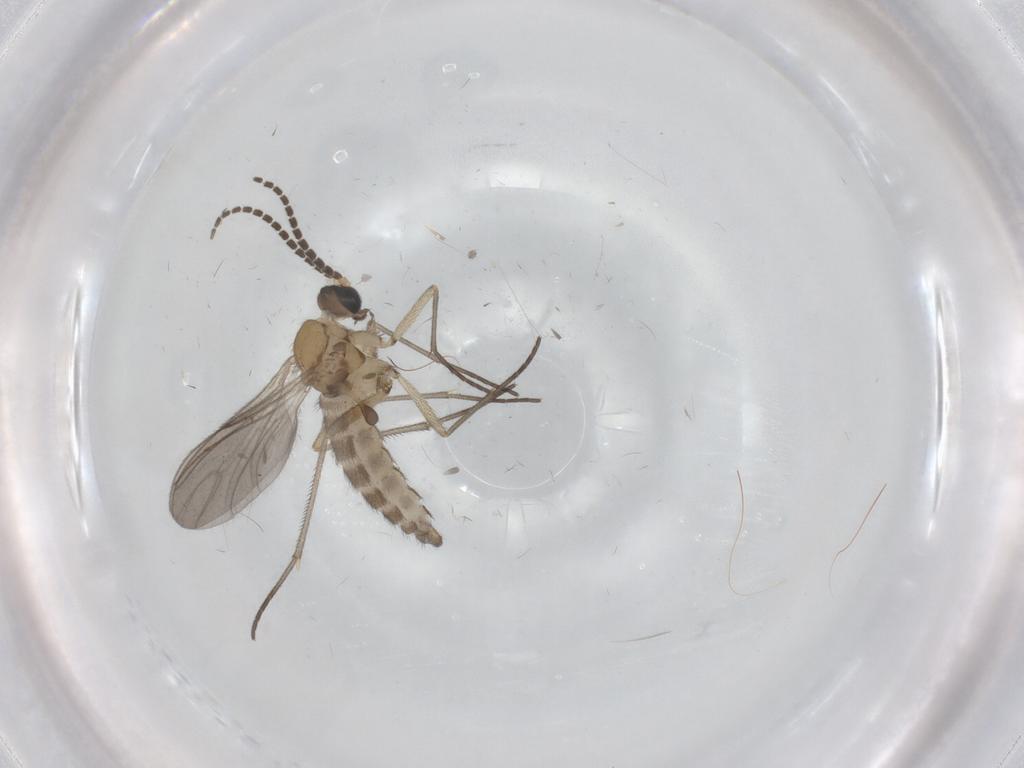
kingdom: Animalia
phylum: Arthropoda
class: Insecta
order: Diptera
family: Sciaridae
